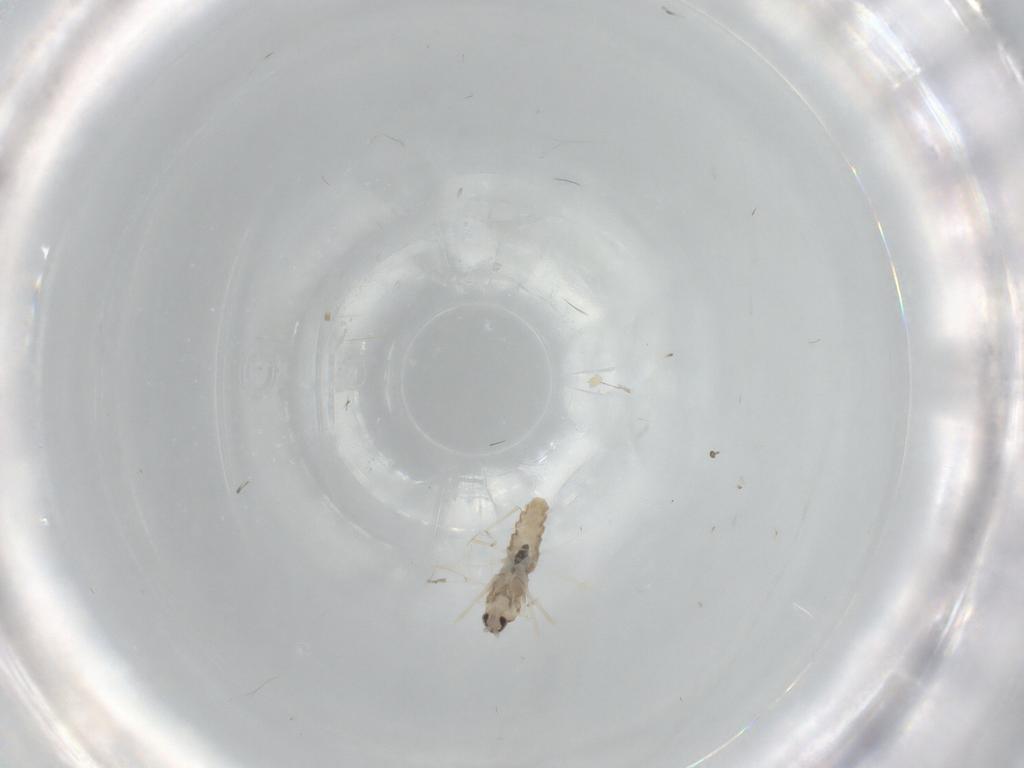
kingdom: Animalia
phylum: Arthropoda
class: Insecta
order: Diptera
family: Cecidomyiidae
